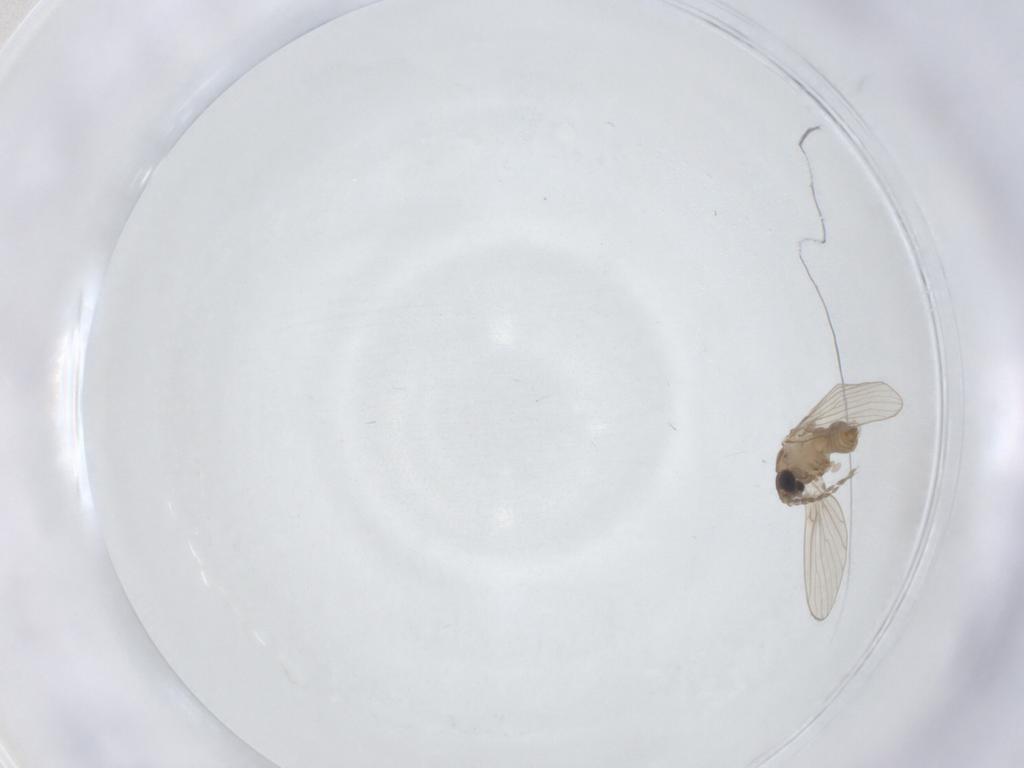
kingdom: Animalia
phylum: Arthropoda
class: Insecta
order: Diptera
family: Psychodidae
